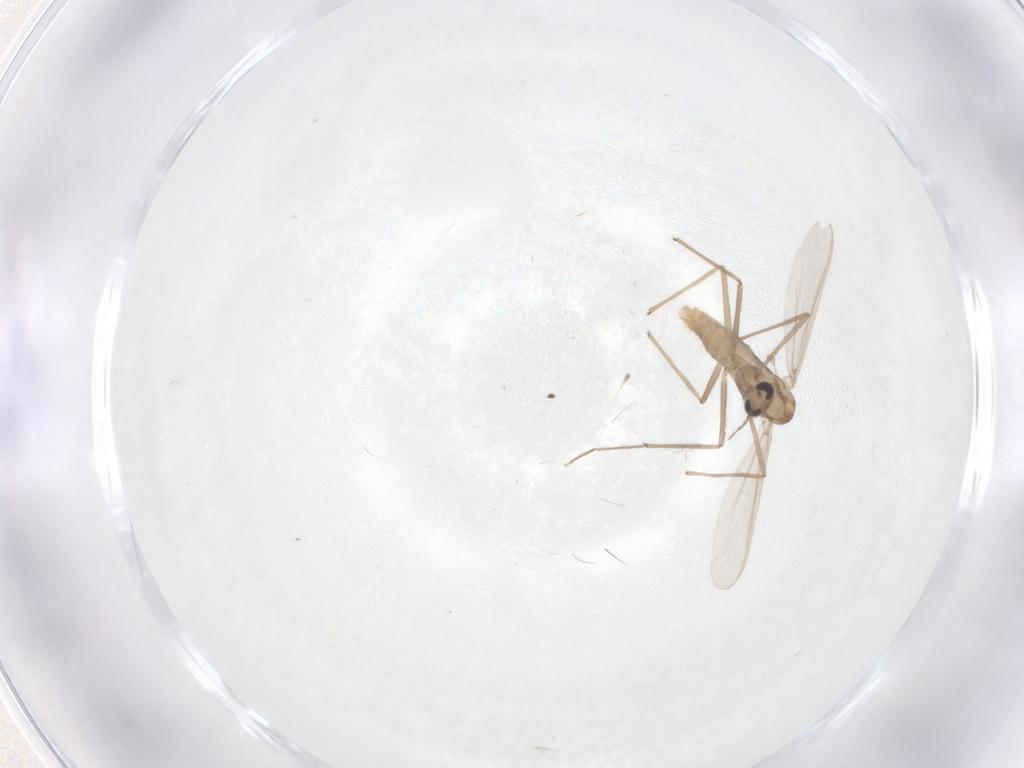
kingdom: Animalia
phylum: Arthropoda
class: Insecta
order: Diptera
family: Chironomidae
